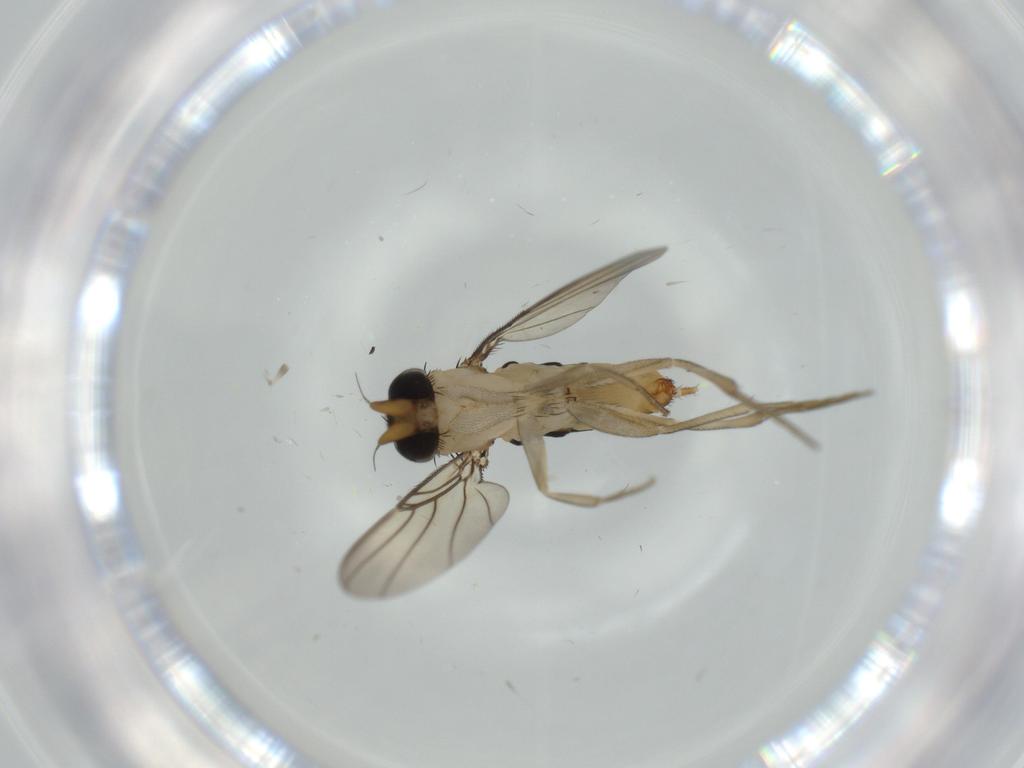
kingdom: Animalia
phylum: Arthropoda
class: Insecta
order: Diptera
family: Phoridae
